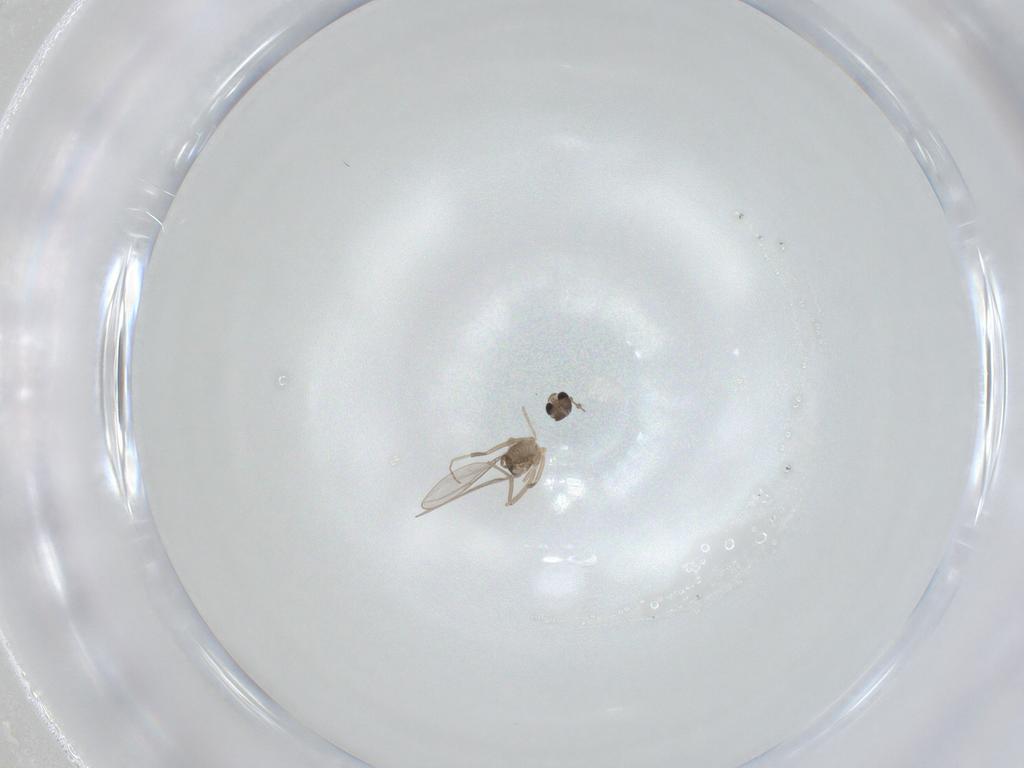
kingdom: Animalia
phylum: Arthropoda
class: Insecta
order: Diptera
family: Cecidomyiidae
